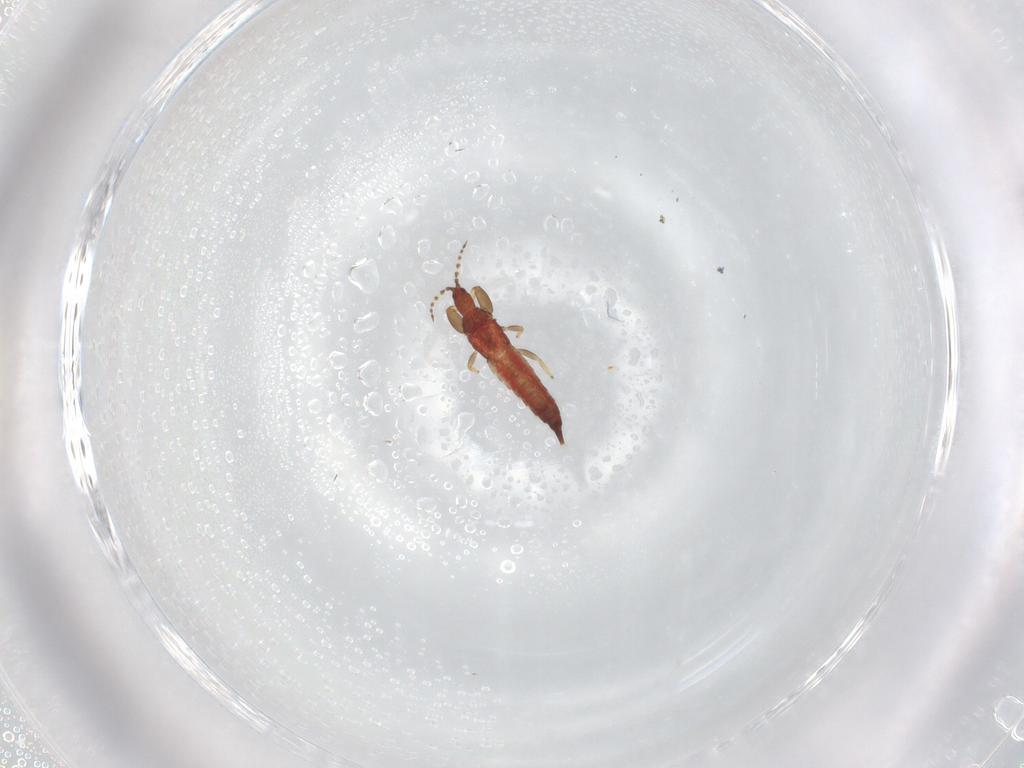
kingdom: Animalia
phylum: Arthropoda
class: Insecta
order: Thysanoptera
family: Phlaeothripidae
